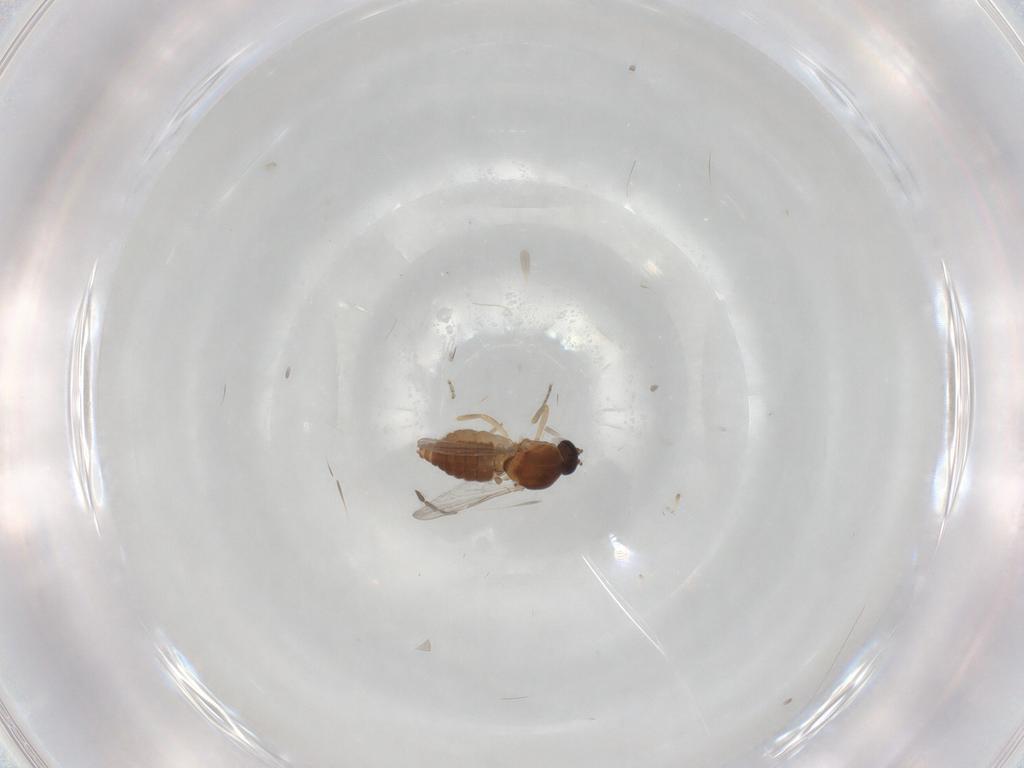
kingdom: Animalia
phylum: Arthropoda
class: Insecta
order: Diptera
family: Ceratopogonidae
